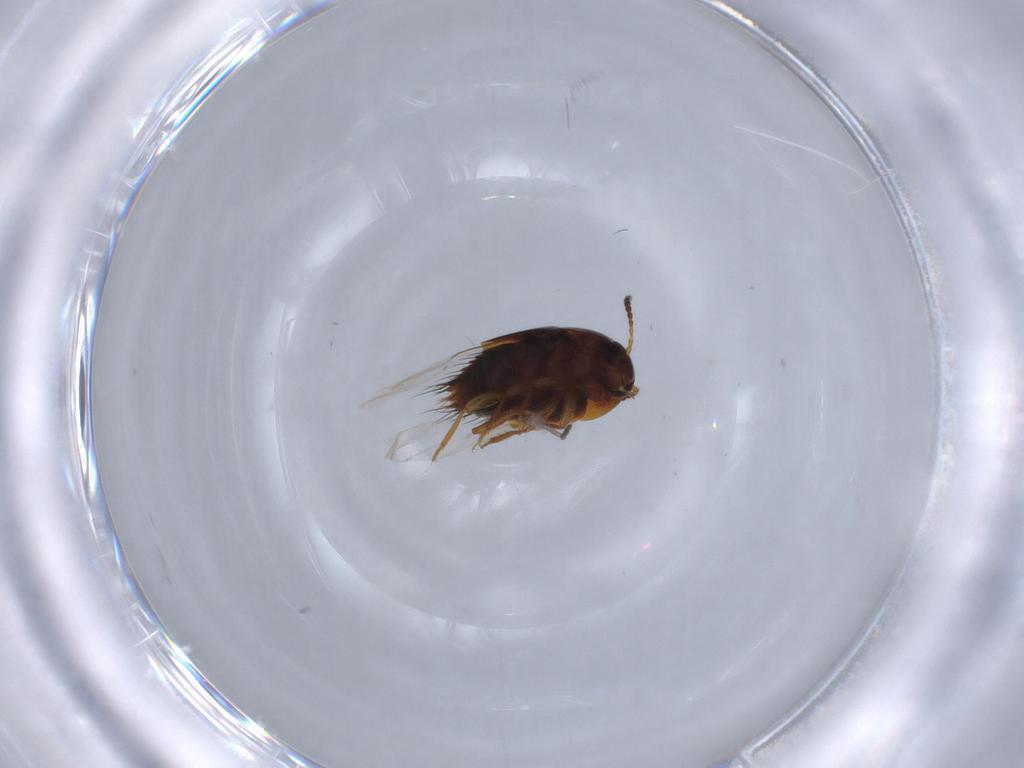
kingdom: Animalia
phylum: Arthropoda
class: Insecta
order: Coleoptera
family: Staphylinidae
